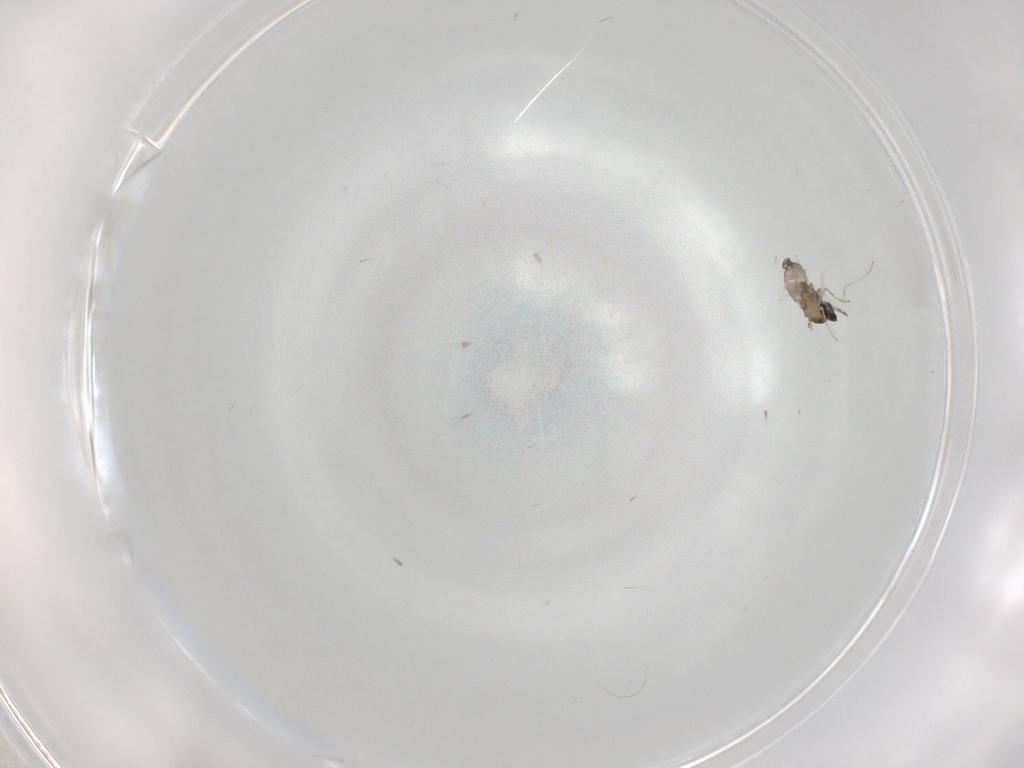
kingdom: Animalia
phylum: Arthropoda
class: Insecta
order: Diptera
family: Cecidomyiidae
